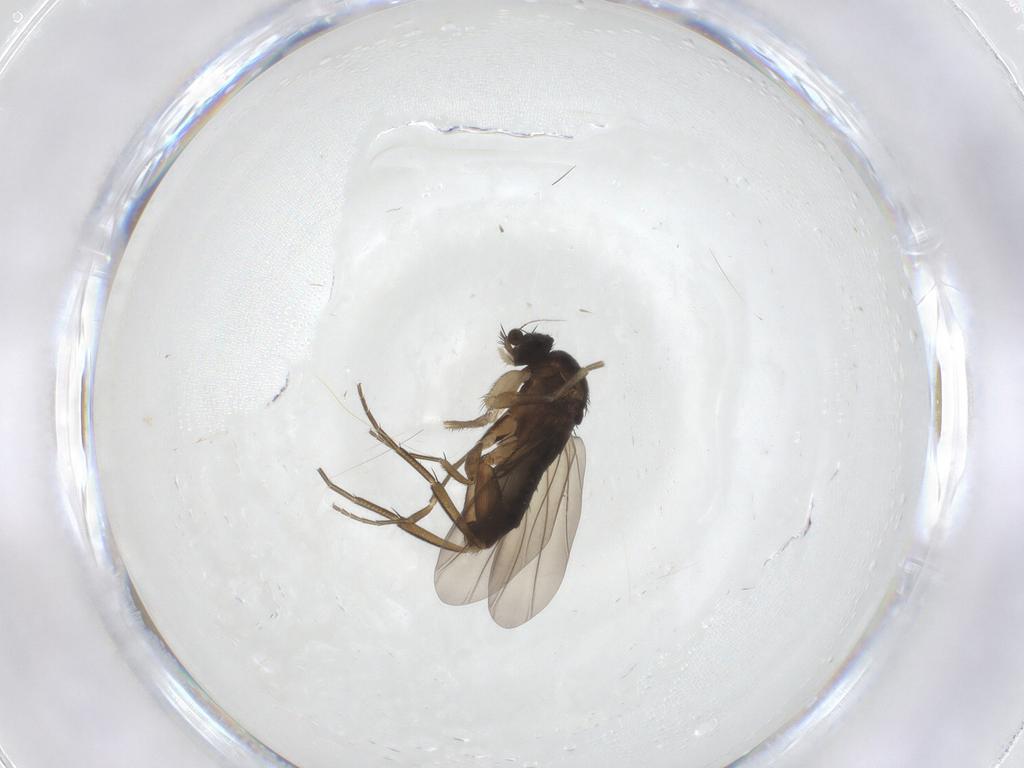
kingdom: Animalia
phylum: Arthropoda
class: Insecta
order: Diptera
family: Phoridae
